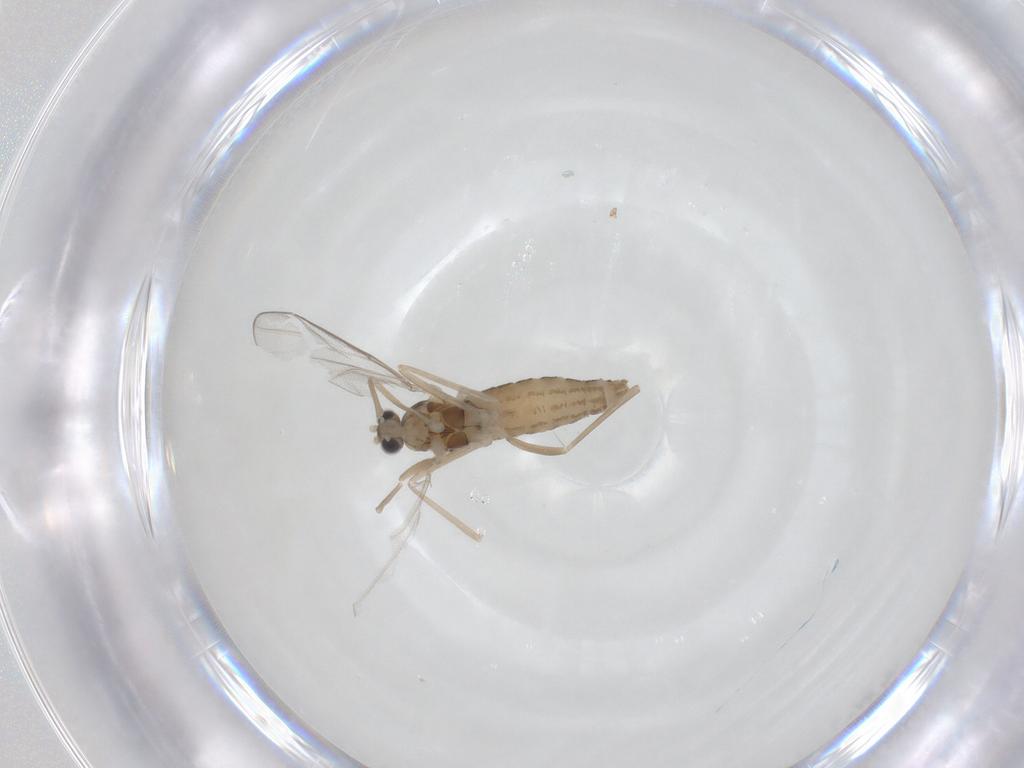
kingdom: Animalia
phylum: Arthropoda
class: Insecta
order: Diptera
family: Cecidomyiidae
